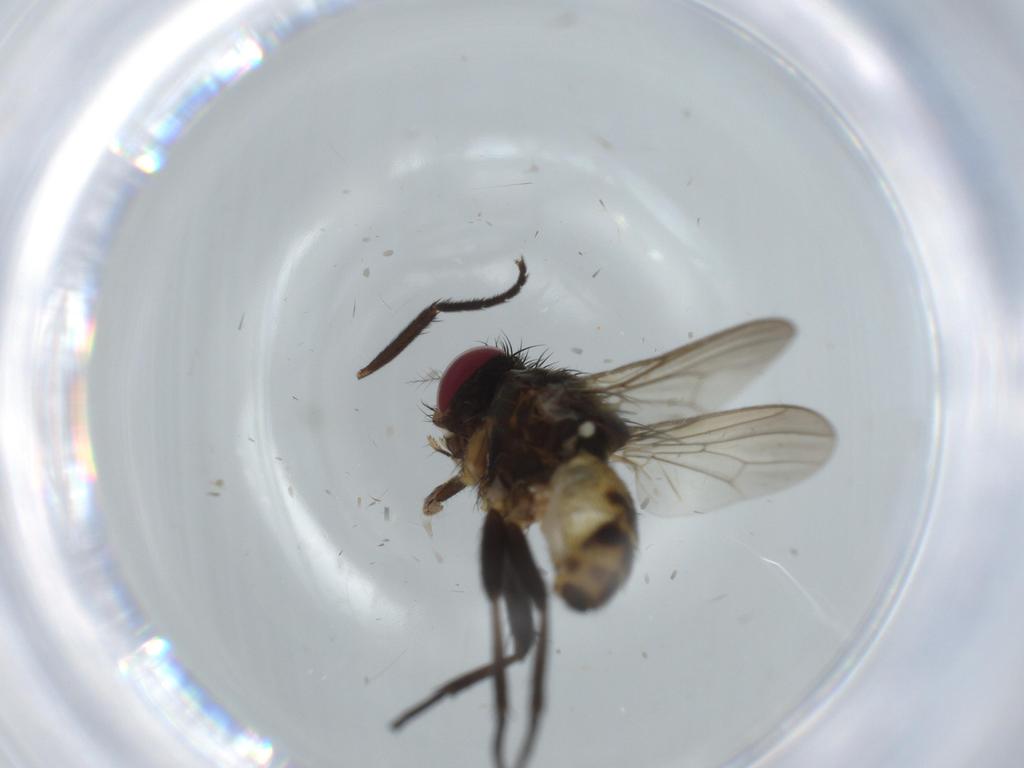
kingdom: Animalia
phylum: Arthropoda
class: Insecta
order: Diptera
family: Anthomyiidae
